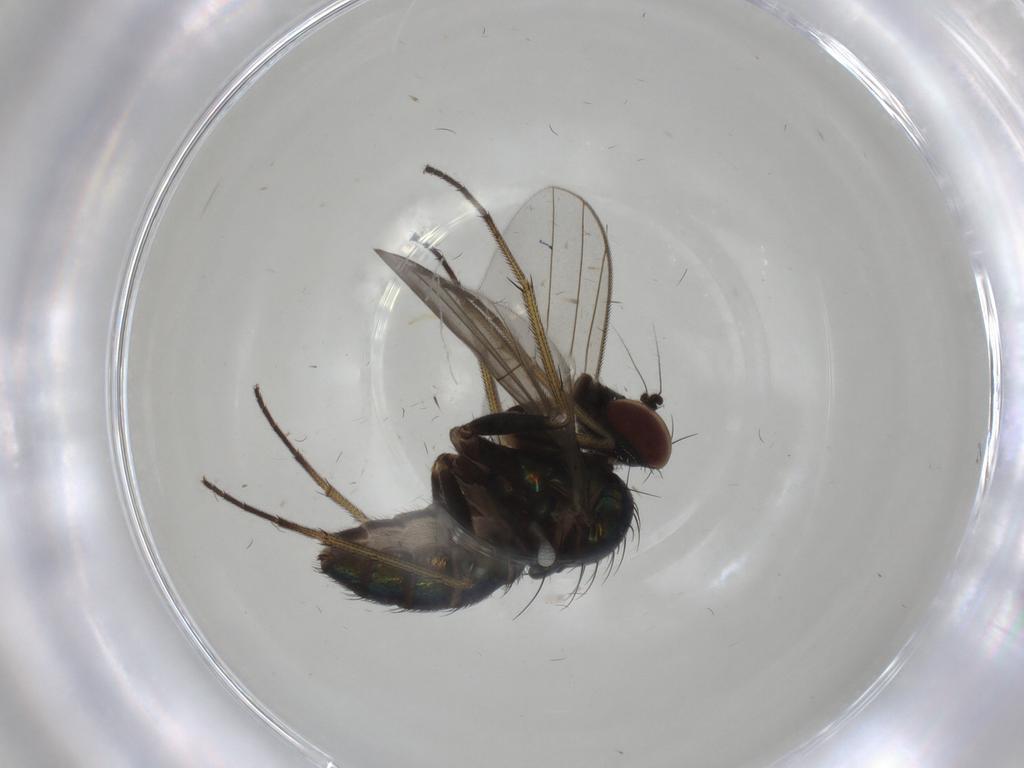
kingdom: Animalia
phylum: Arthropoda
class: Insecta
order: Diptera
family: Dolichopodidae
